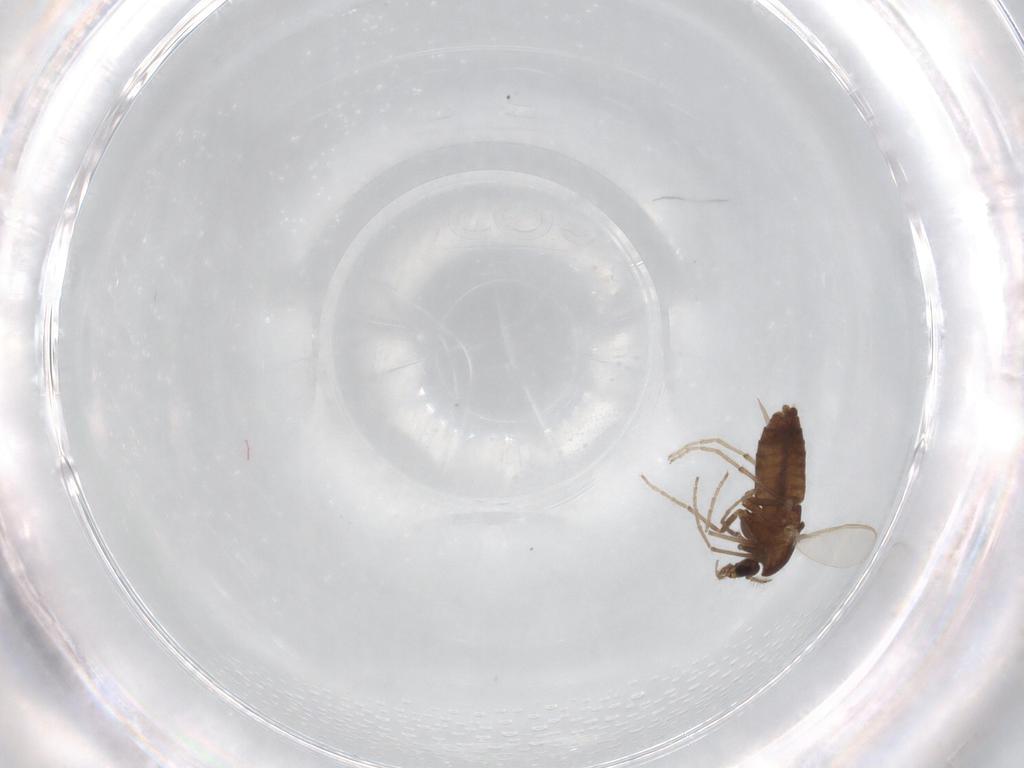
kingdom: Animalia
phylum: Arthropoda
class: Insecta
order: Diptera
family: Chironomidae
